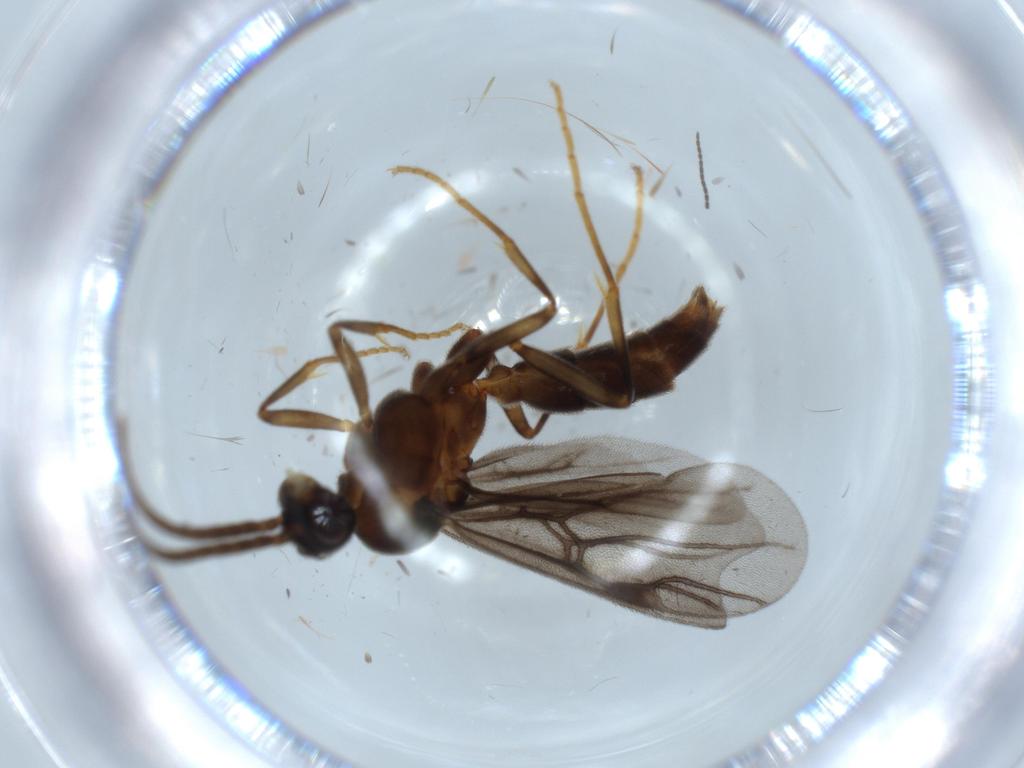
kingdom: Animalia
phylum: Arthropoda
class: Insecta
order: Hymenoptera
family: Formicidae
